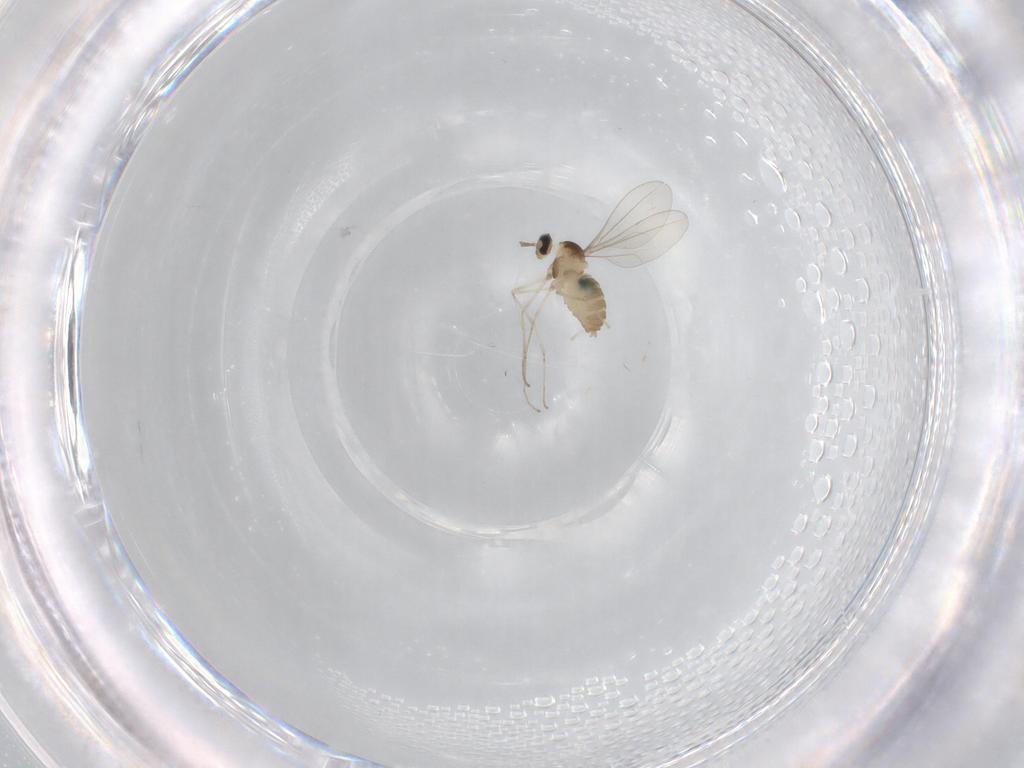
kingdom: Animalia
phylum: Arthropoda
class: Insecta
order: Diptera
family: Cecidomyiidae
